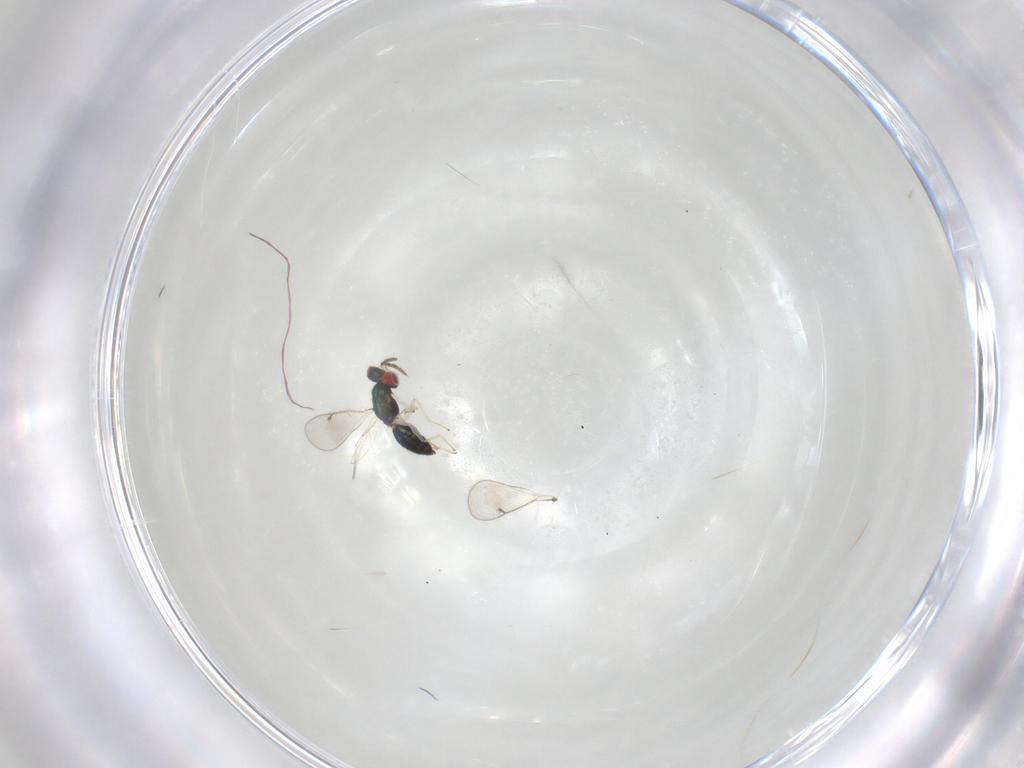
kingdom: Animalia
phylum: Arthropoda
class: Insecta
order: Hymenoptera
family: Eulophidae
